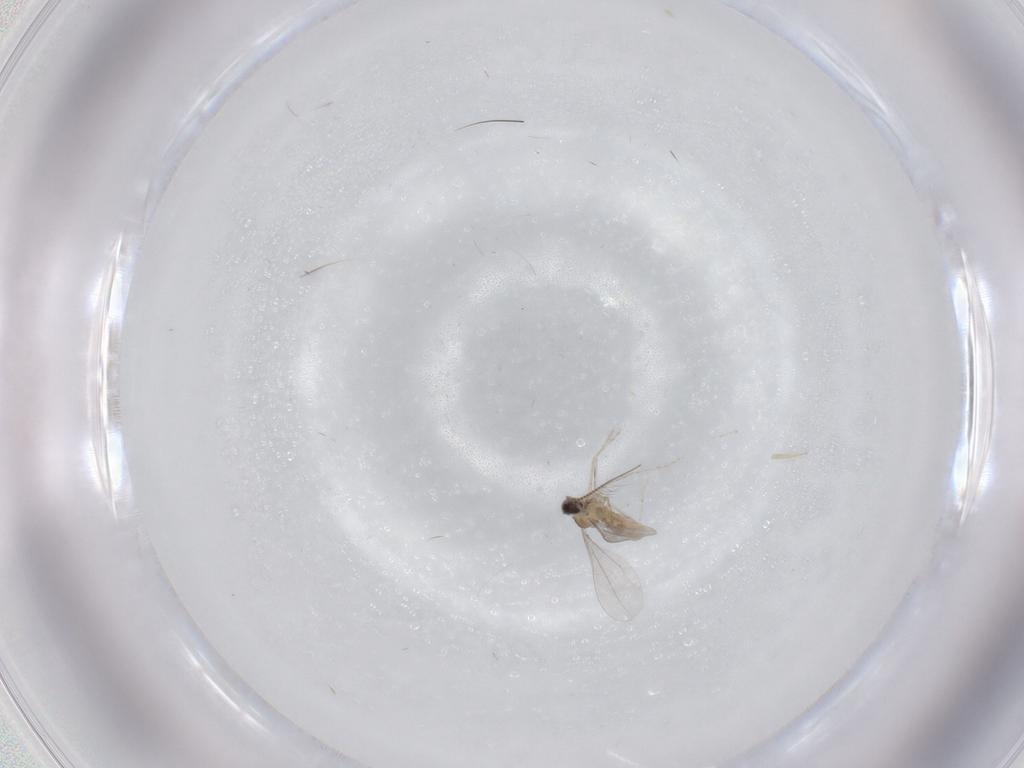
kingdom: Animalia
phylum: Arthropoda
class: Insecta
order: Diptera
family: Cecidomyiidae
